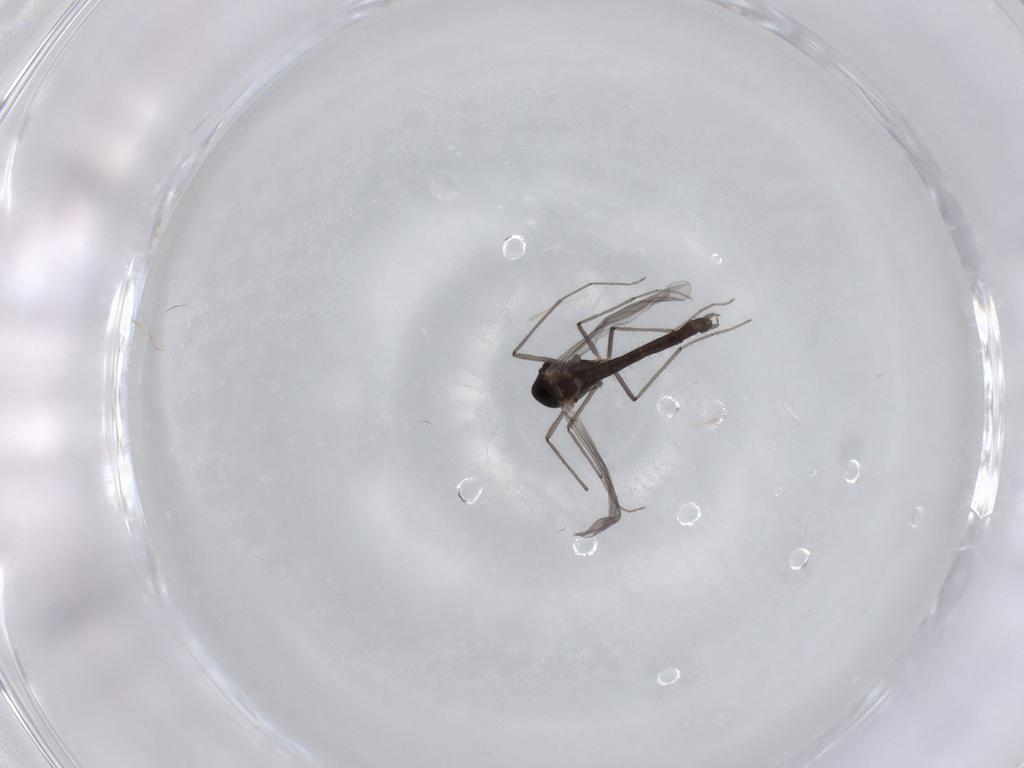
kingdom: Animalia
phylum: Arthropoda
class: Insecta
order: Diptera
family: Chironomidae
